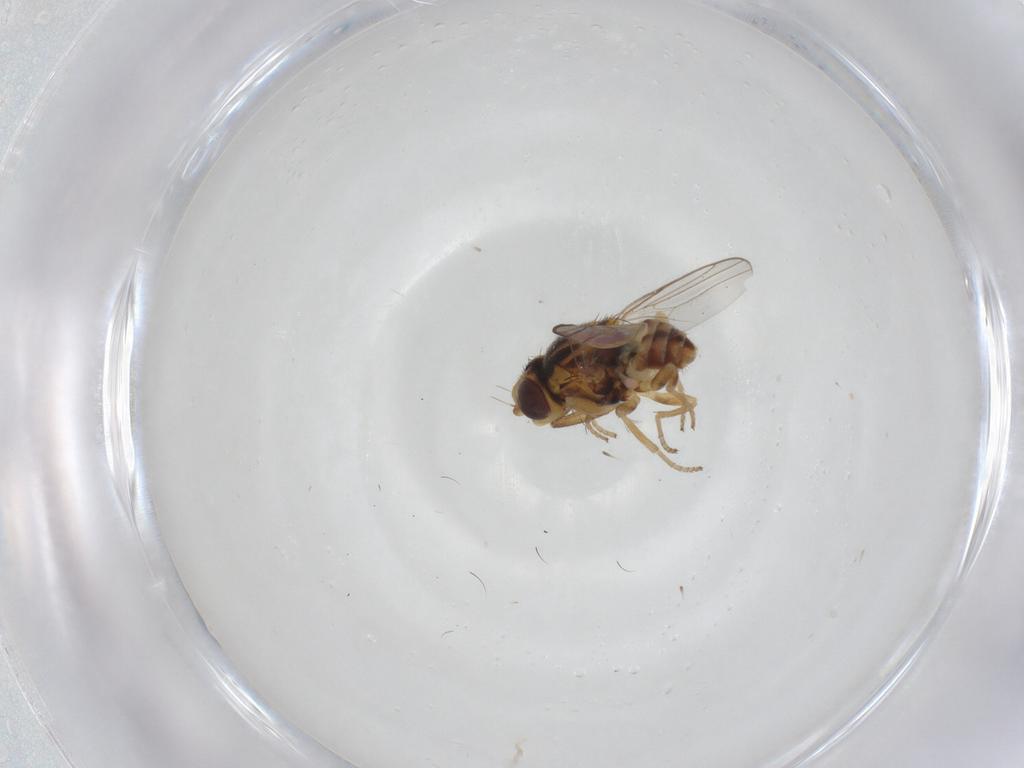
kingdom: Animalia
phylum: Arthropoda
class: Insecta
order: Diptera
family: Chloropidae
